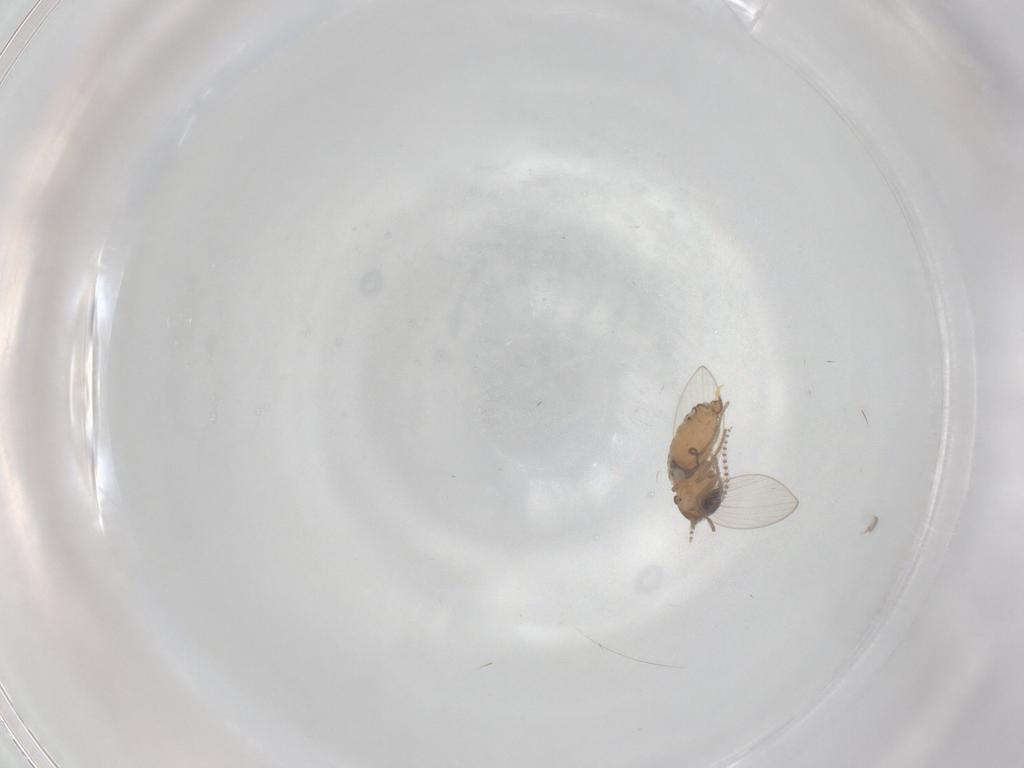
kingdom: Animalia
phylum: Arthropoda
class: Insecta
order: Diptera
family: Psychodidae
